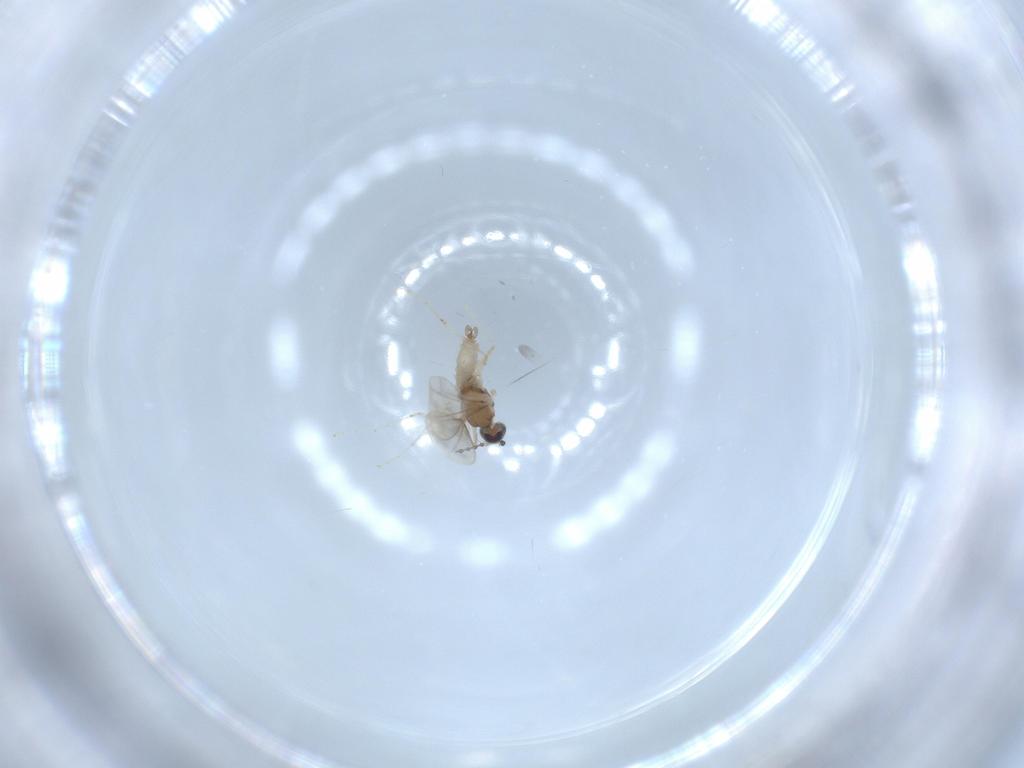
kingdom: Animalia
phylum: Arthropoda
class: Insecta
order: Diptera
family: Cecidomyiidae
